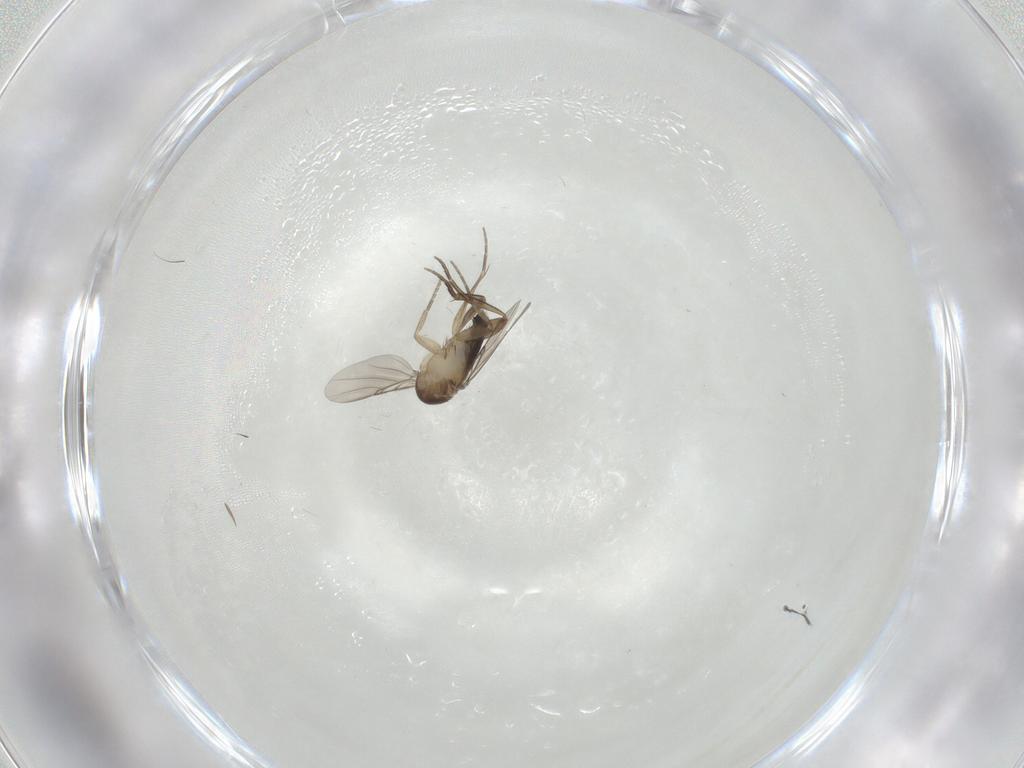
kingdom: Animalia
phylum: Arthropoda
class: Insecta
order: Diptera
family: Phoridae
